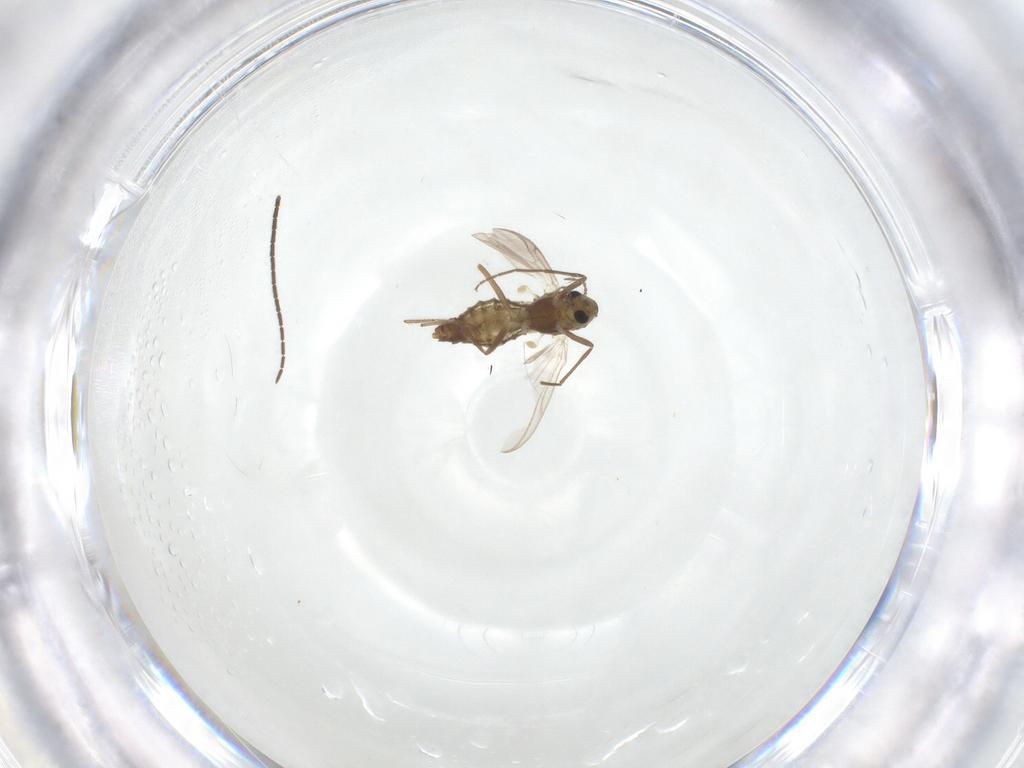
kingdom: Animalia
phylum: Arthropoda
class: Insecta
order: Diptera
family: Sciaridae
